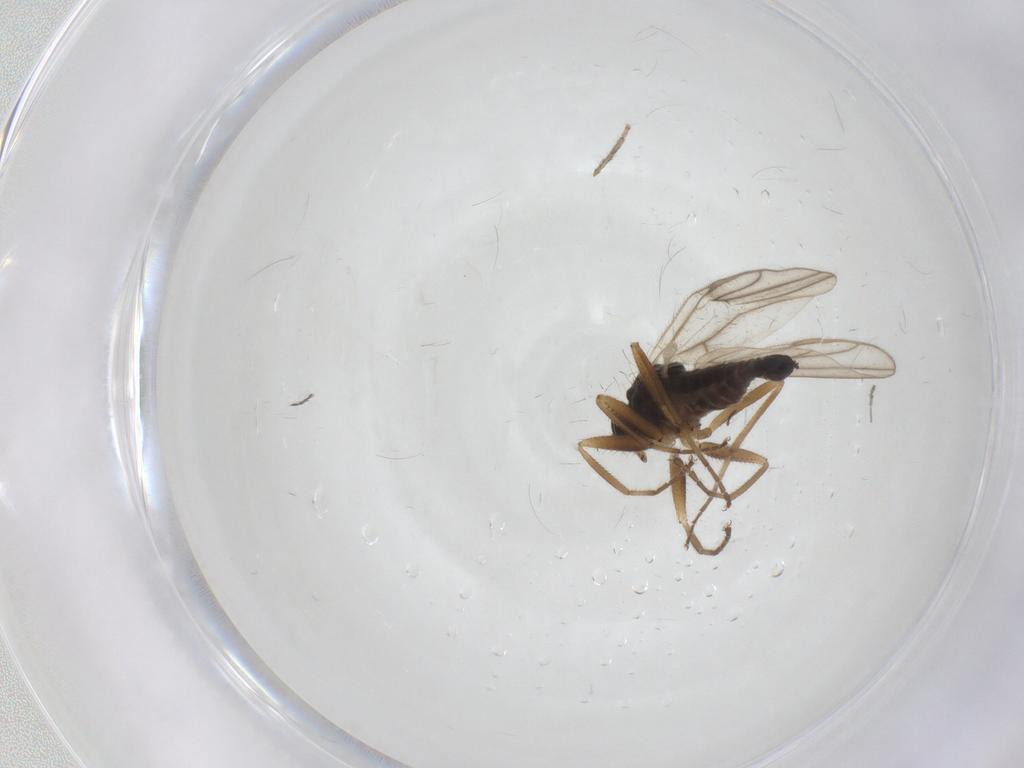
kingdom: Animalia
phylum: Arthropoda
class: Insecta
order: Diptera
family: Hybotidae
